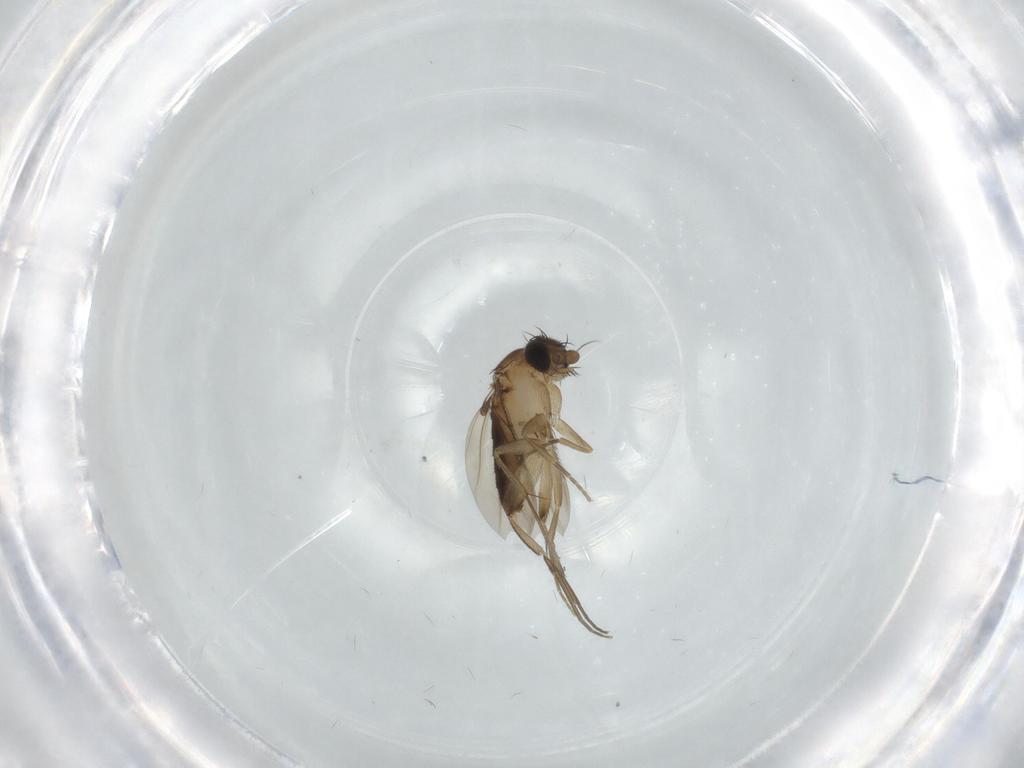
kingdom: Animalia
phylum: Arthropoda
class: Insecta
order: Diptera
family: Phoridae
